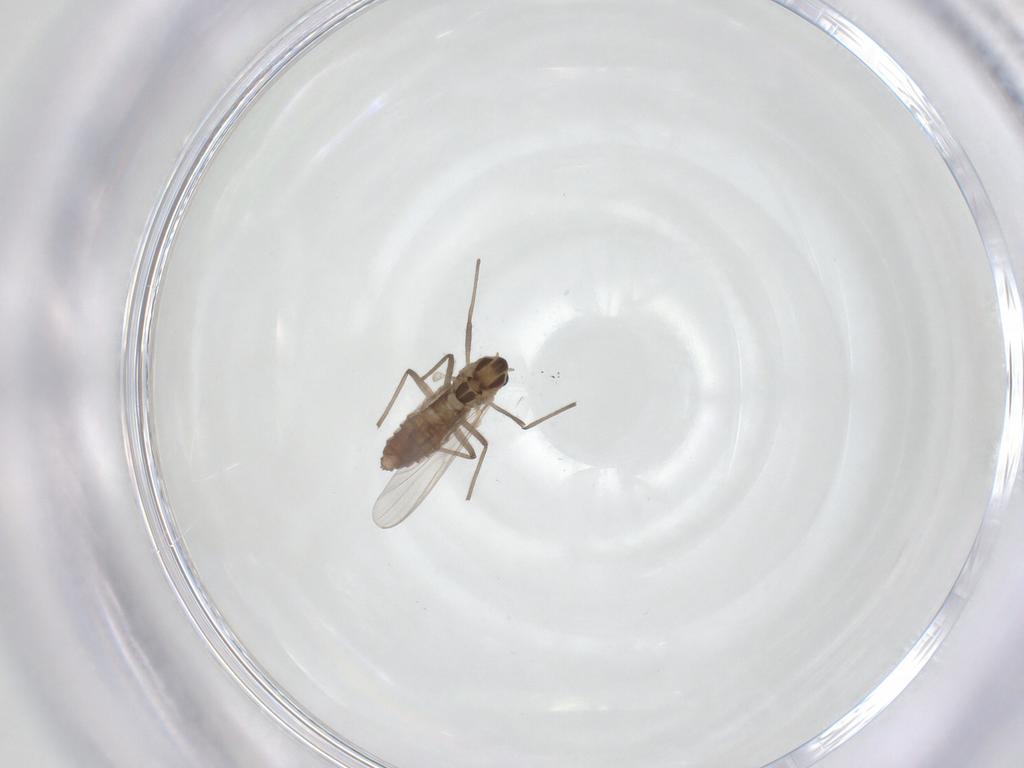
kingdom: Animalia
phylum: Arthropoda
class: Insecta
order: Diptera
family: Chironomidae
